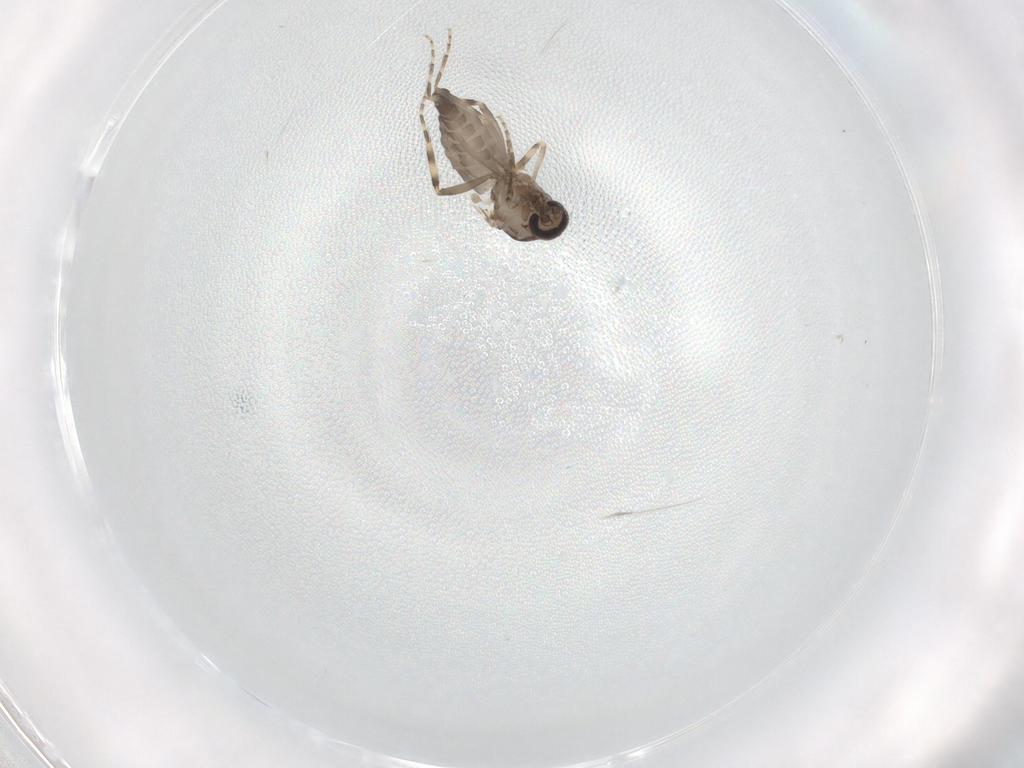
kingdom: Animalia
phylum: Arthropoda
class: Insecta
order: Diptera
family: Ceratopogonidae
